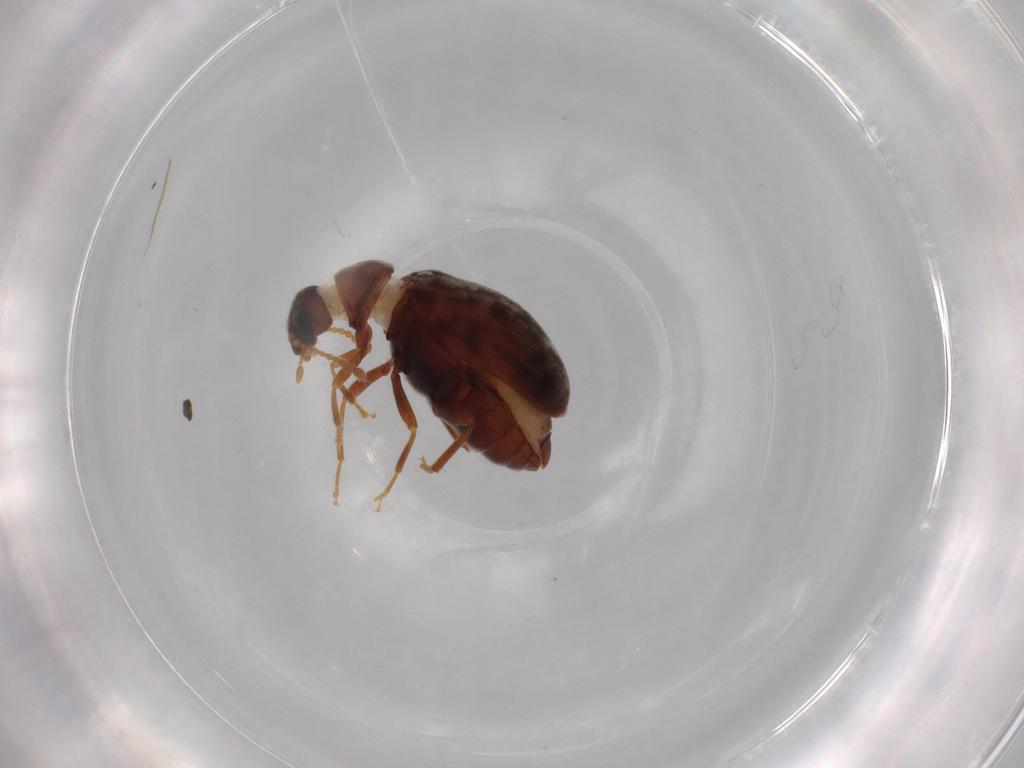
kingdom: Animalia
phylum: Arthropoda
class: Insecta
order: Coleoptera
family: Aderidae
